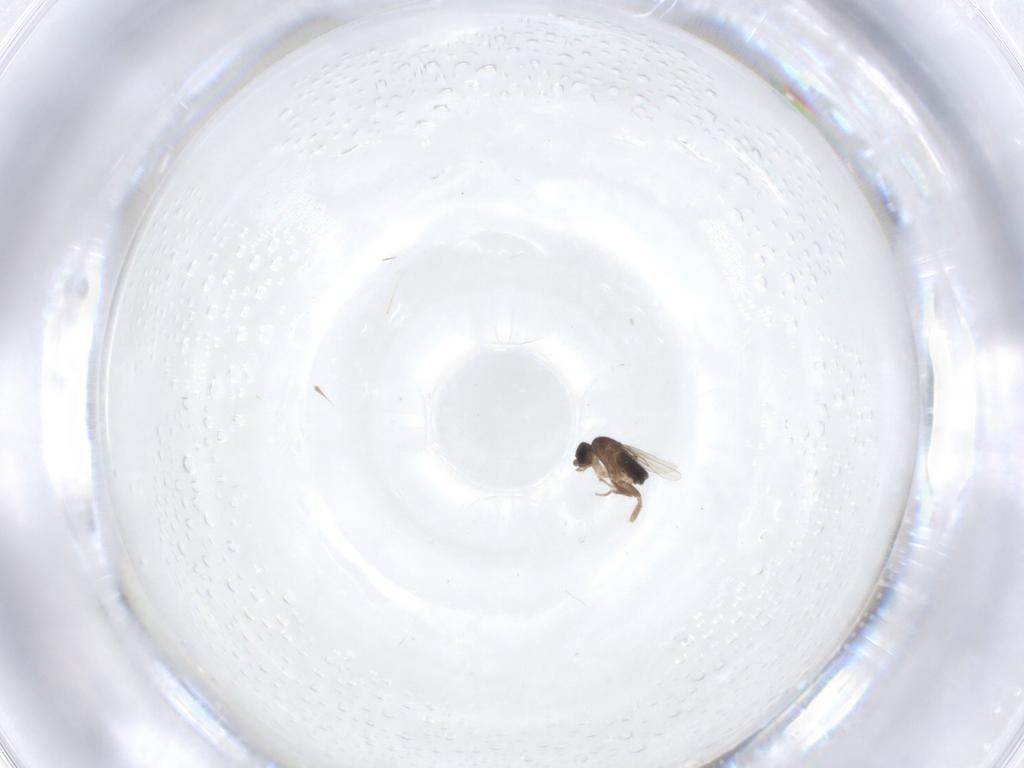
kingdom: Animalia
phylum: Arthropoda
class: Insecta
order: Diptera
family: Phoridae
